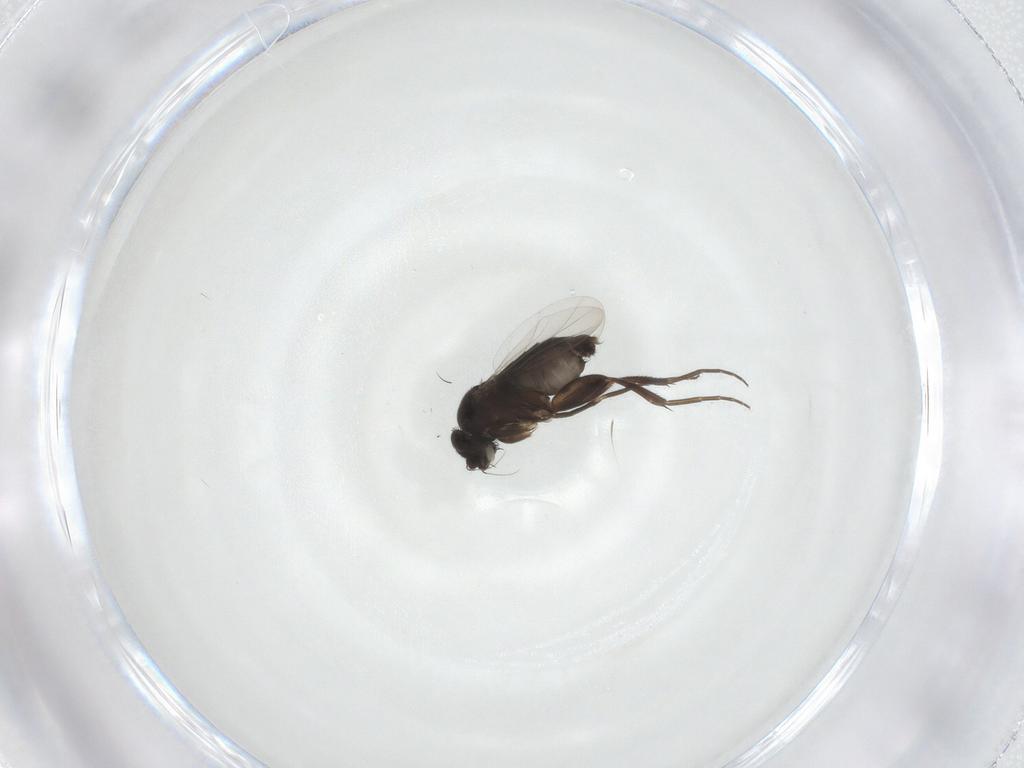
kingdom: Animalia
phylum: Arthropoda
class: Insecta
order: Diptera
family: Phoridae
